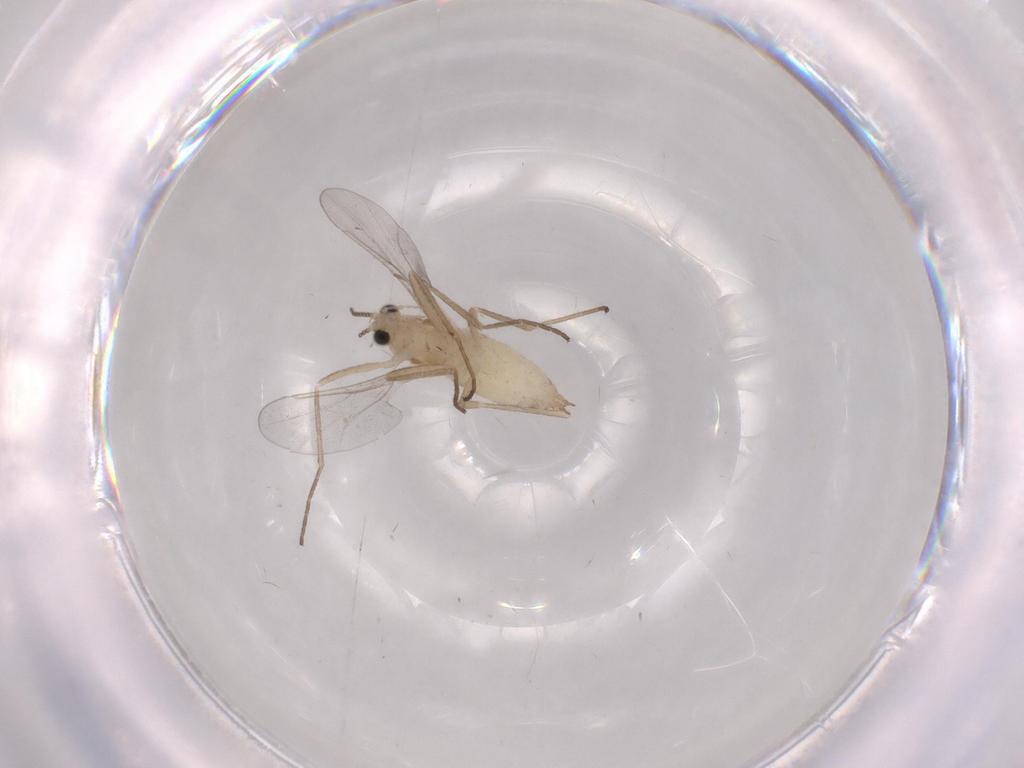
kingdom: Animalia
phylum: Arthropoda
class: Insecta
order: Diptera
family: Cecidomyiidae
